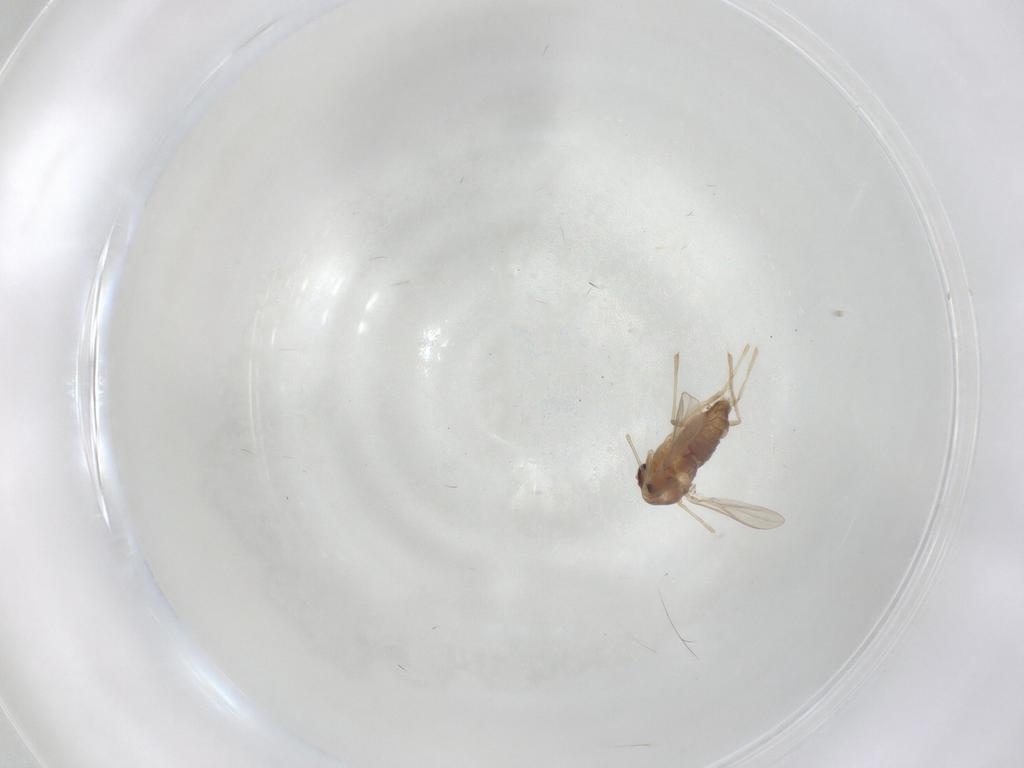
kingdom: Animalia
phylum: Arthropoda
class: Insecta
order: Diptera
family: Chironomidae
